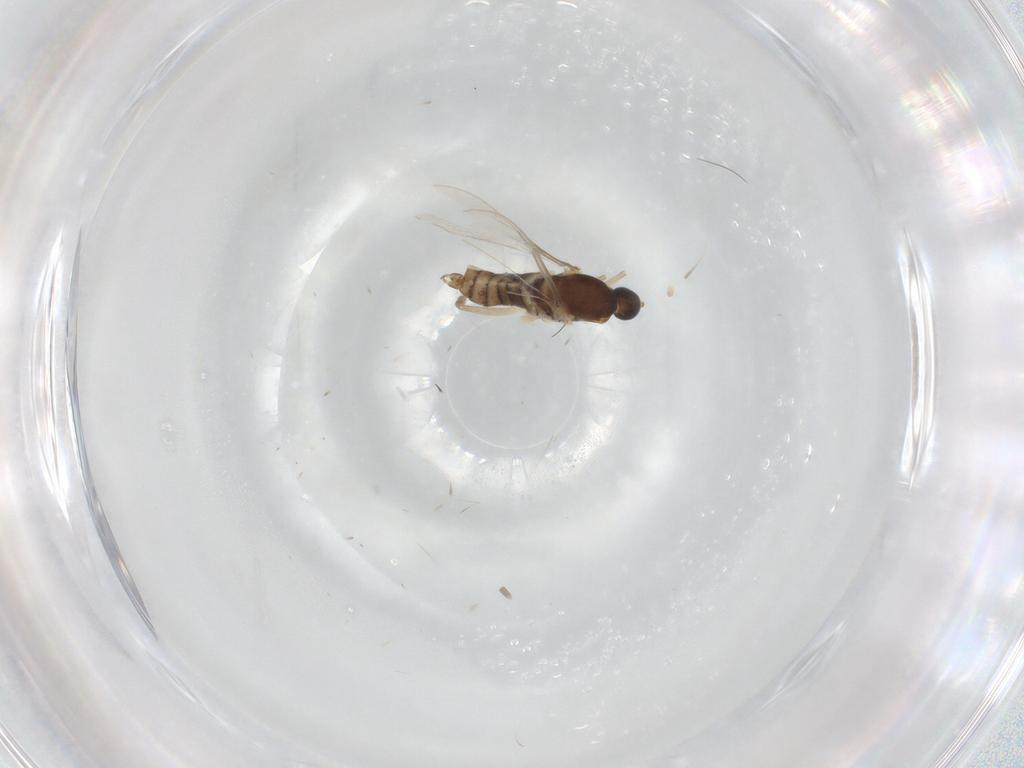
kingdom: Animalia
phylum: Arthropoda
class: Insecta
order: Diptera
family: Cecidomyiidae
